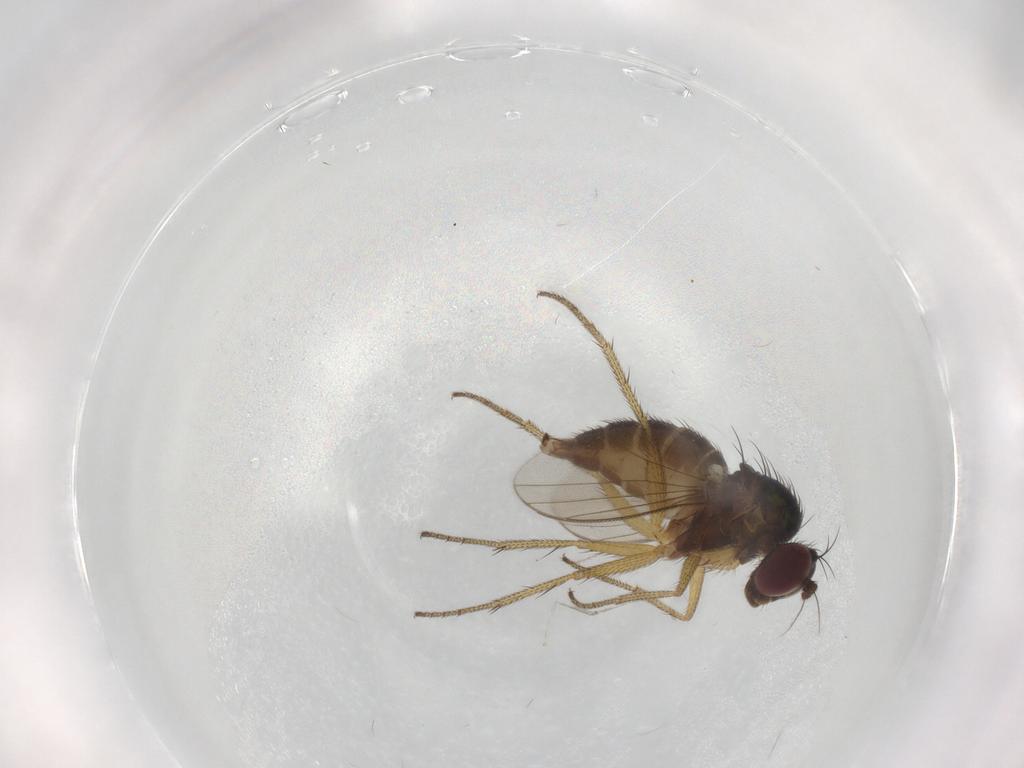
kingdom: Animalia
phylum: Arthropoda
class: Insecta
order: Diptera
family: Dolichopodidae
